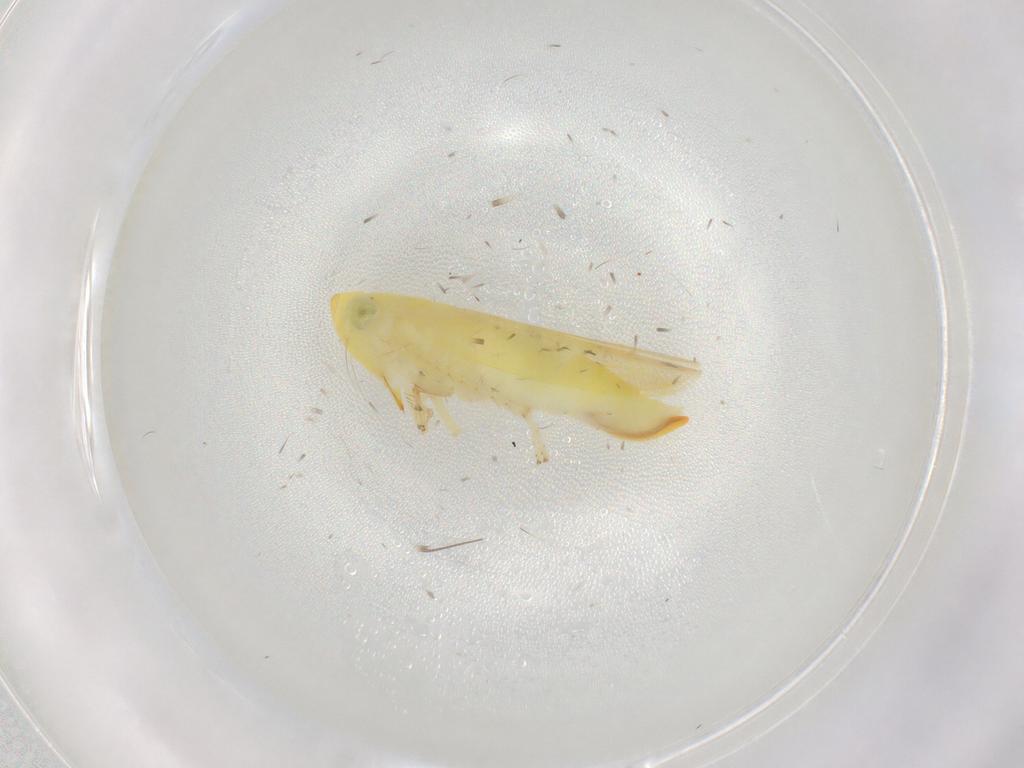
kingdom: Animalia
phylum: Arthropoda
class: Insecta
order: Hemiptera
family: Cicadellidae
